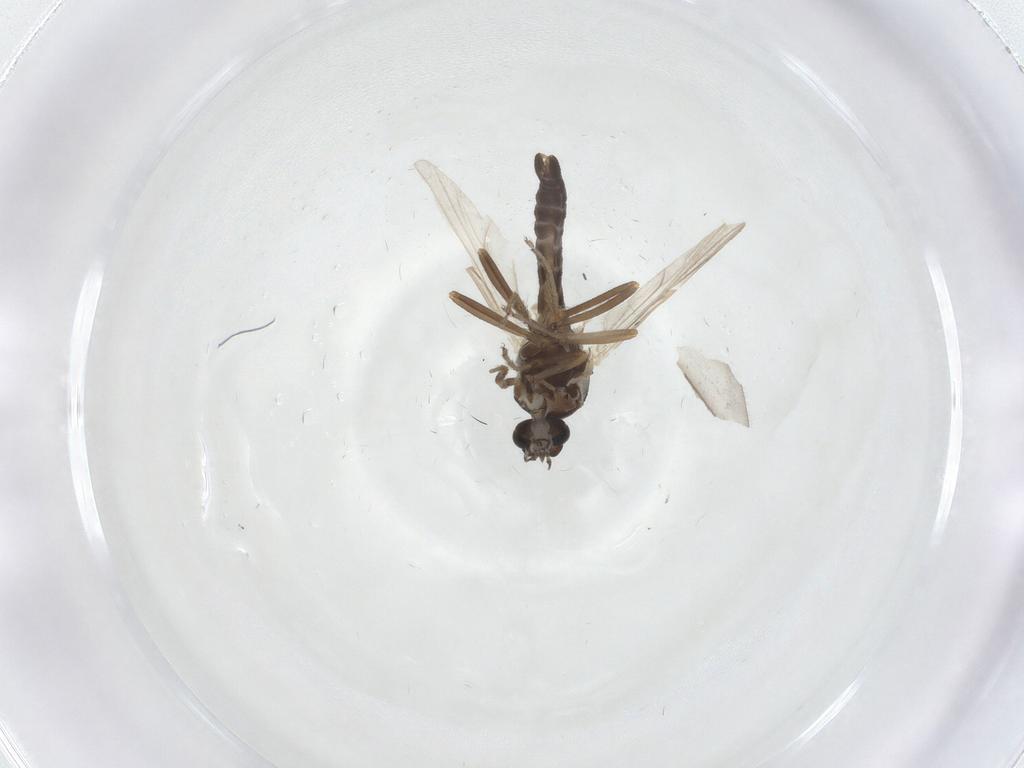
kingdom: Animalia
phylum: Arthropoda
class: Insecta
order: Diptera
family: Ceratopogonidae
